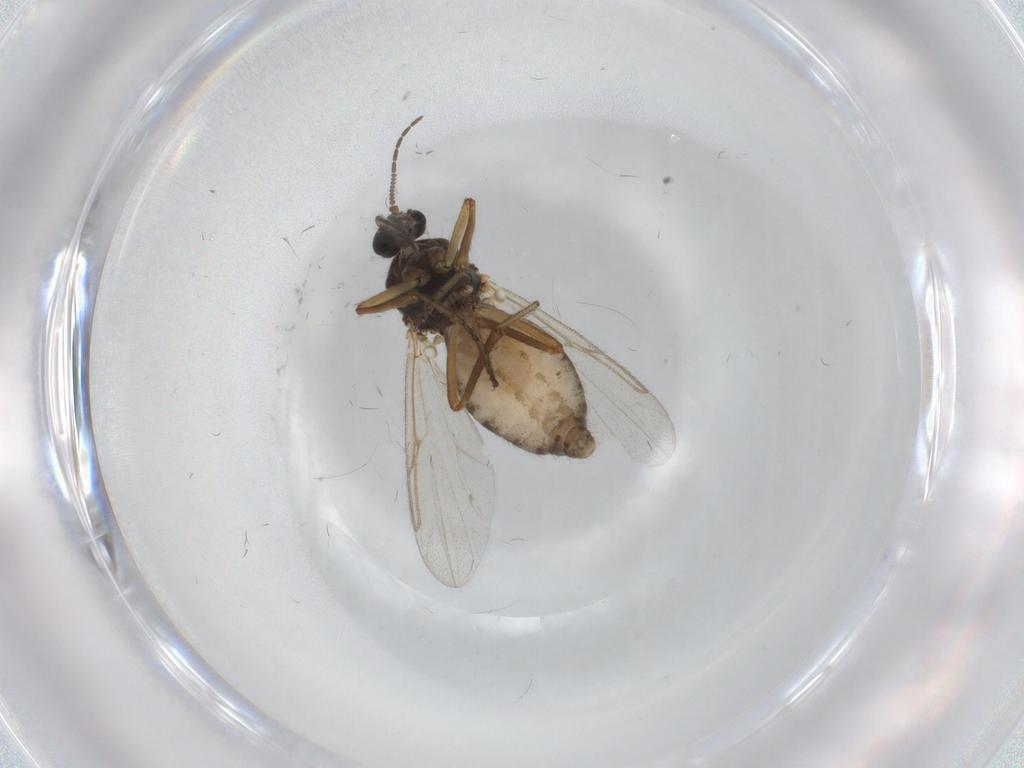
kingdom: Animalia
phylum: Arthropoda
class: Insecta
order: Diptera
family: Ceratopogonidae
